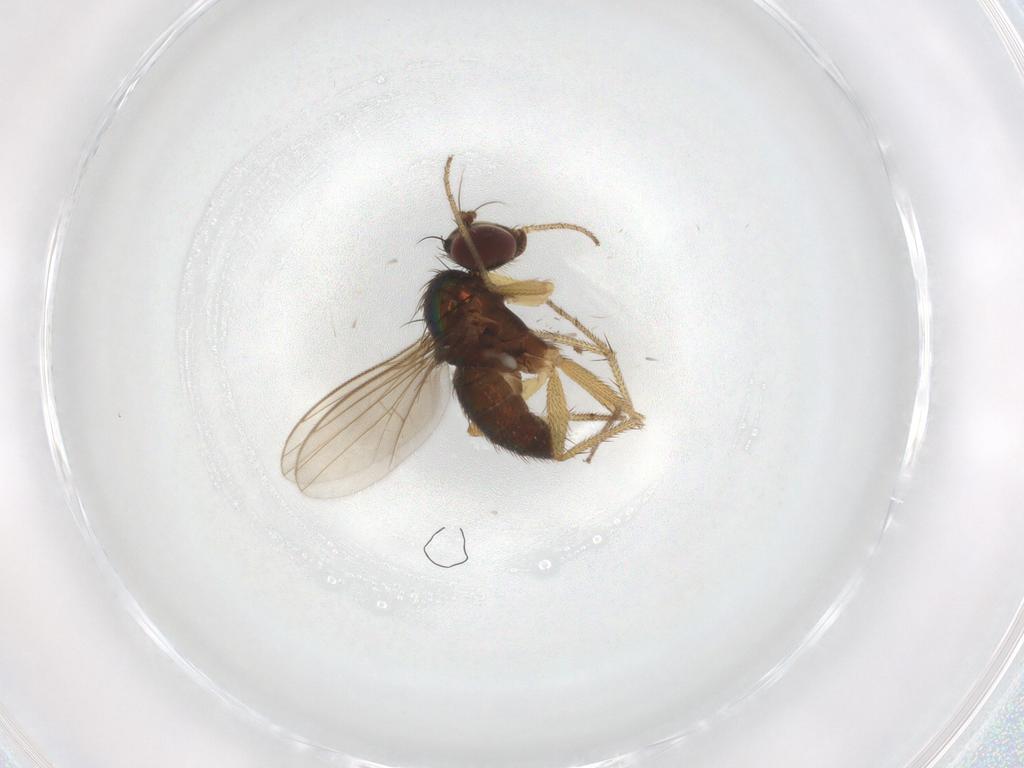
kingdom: Animalia
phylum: Arthropoda
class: Insecta
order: Diptera
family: Dolichopodidae
